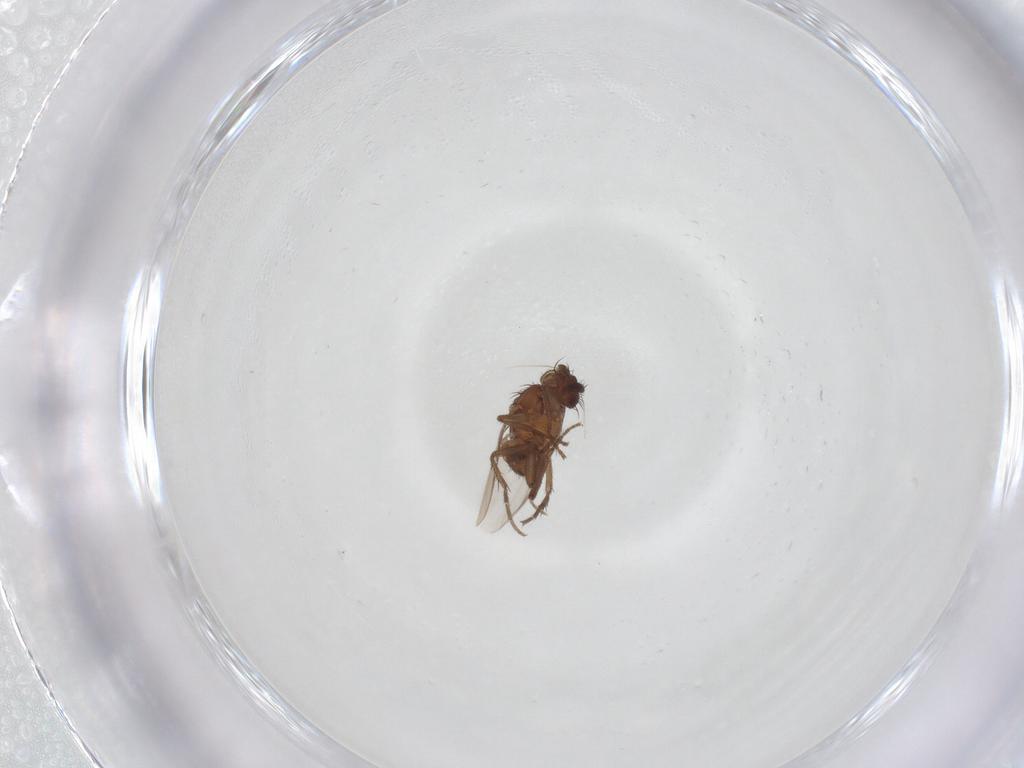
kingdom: Animalia
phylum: Arthropoda
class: Insecta
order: Diptera
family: Sphaeroceridae
